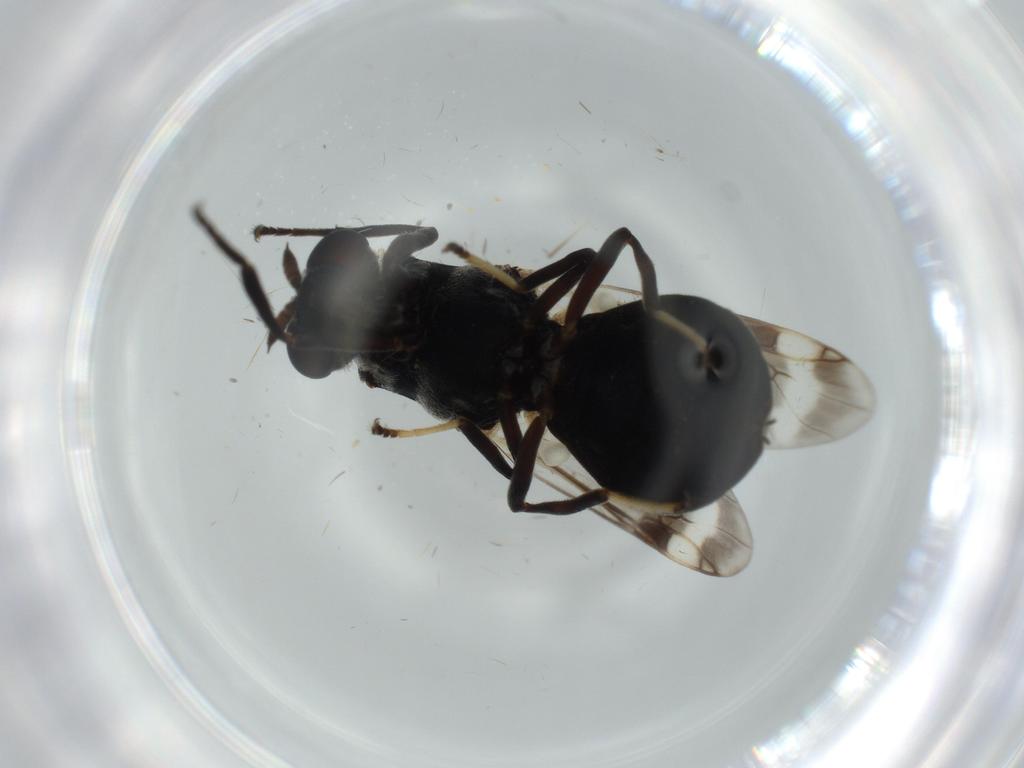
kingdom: Animalia
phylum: Arthropoda
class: Insecta
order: Diptera
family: Stratiomyidae
